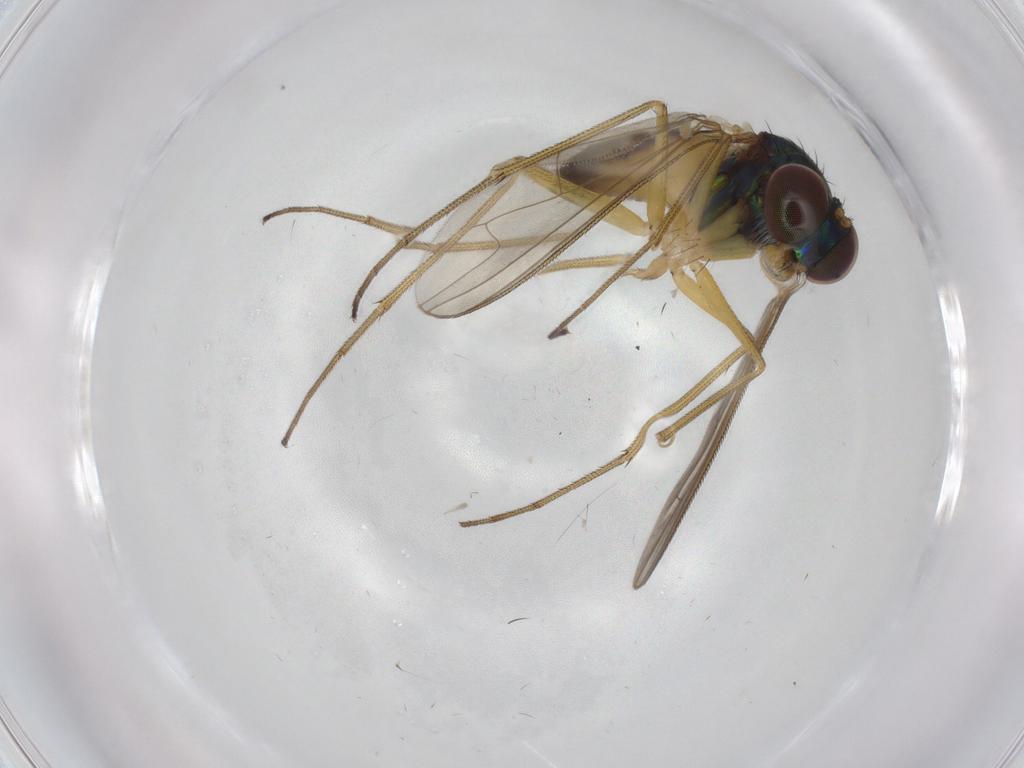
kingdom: Animalia
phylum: Arthropoda
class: Insecta
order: Diptera
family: Dolichopodidae
